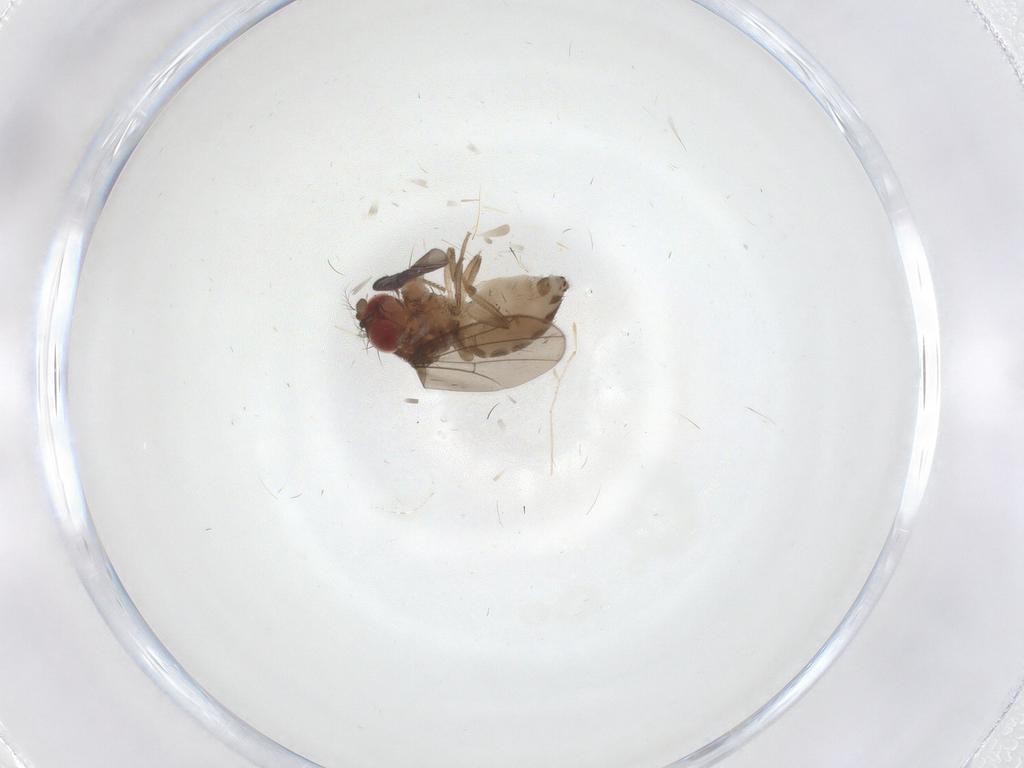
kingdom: Animalia
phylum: Arthropoda
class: Insecta
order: Diptera
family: Drosophilidae
